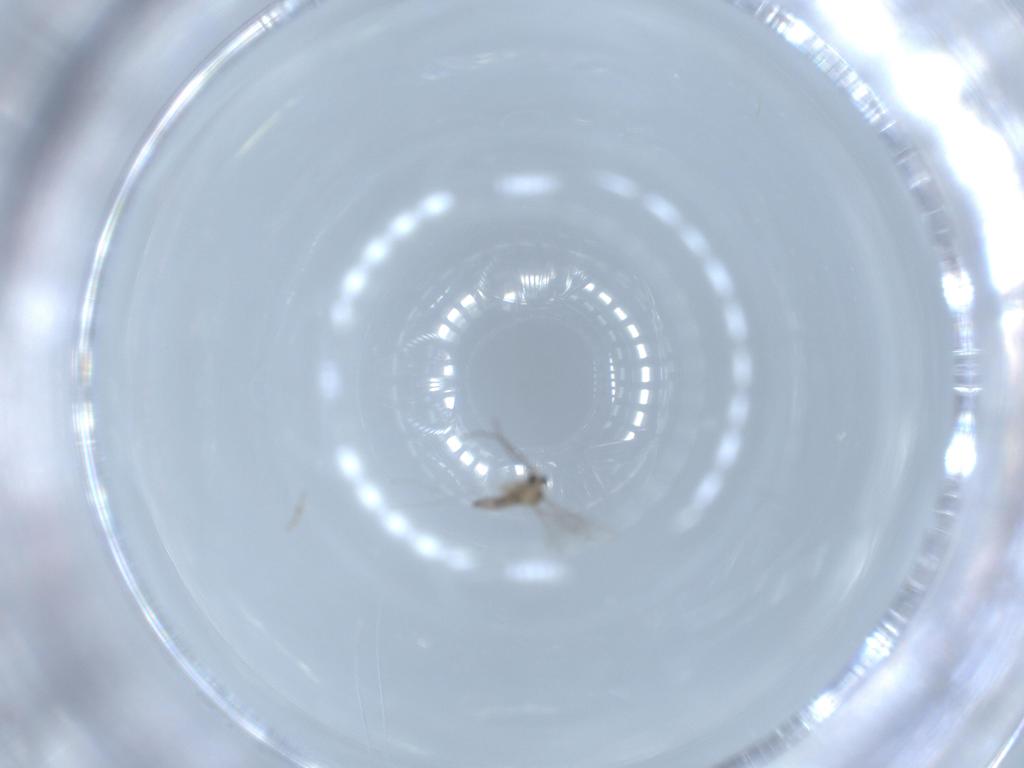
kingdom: Animalia
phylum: Arthropoda
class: Insecta
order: Diptera
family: Cecidomyiidae
